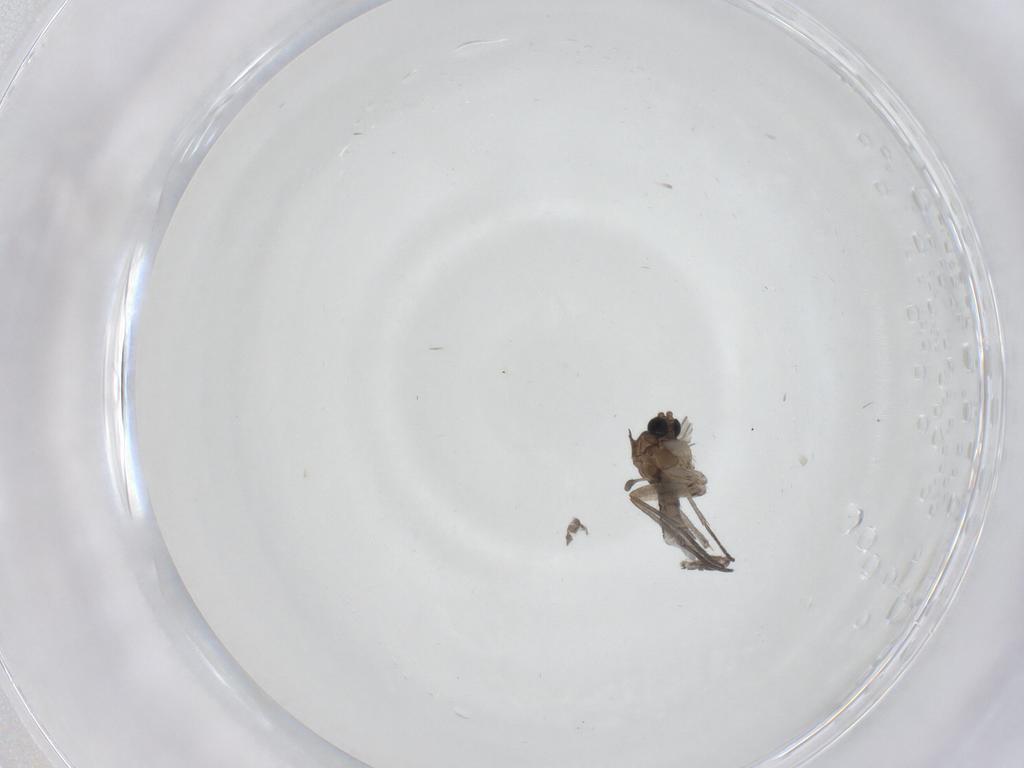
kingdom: Animalia
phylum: Arthropoda
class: Insecta
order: Diptera
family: Sciaridae
